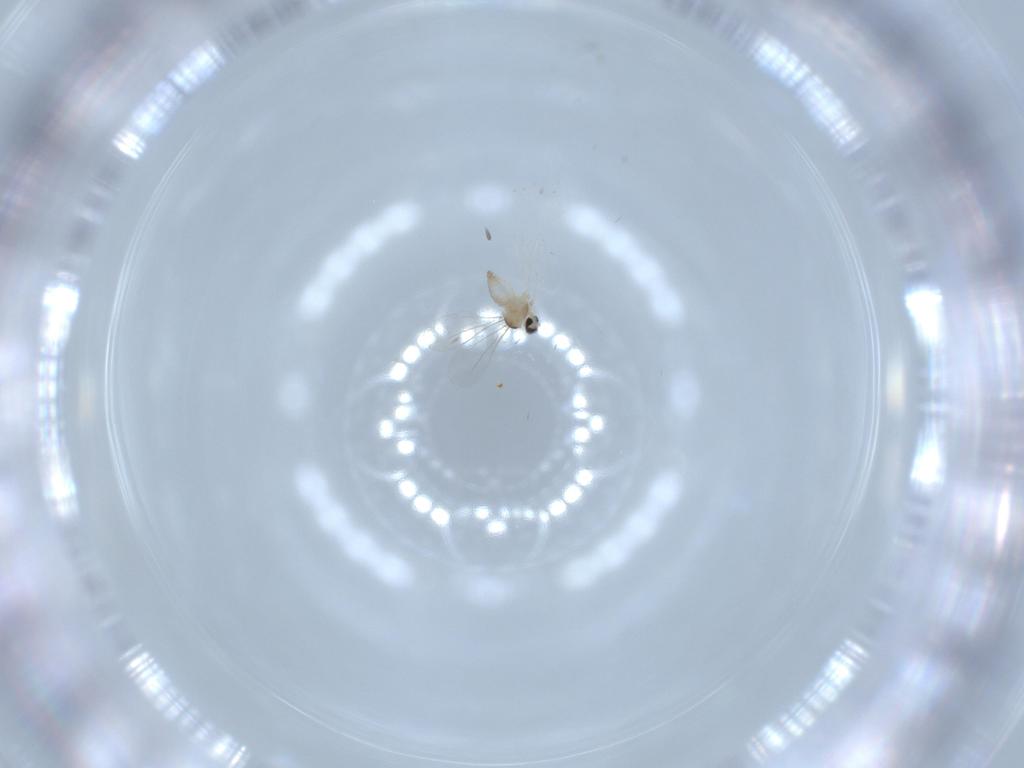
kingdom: Animalia
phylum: Arthropoda
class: Insecta
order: Diptera
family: Cecidomyiidae
